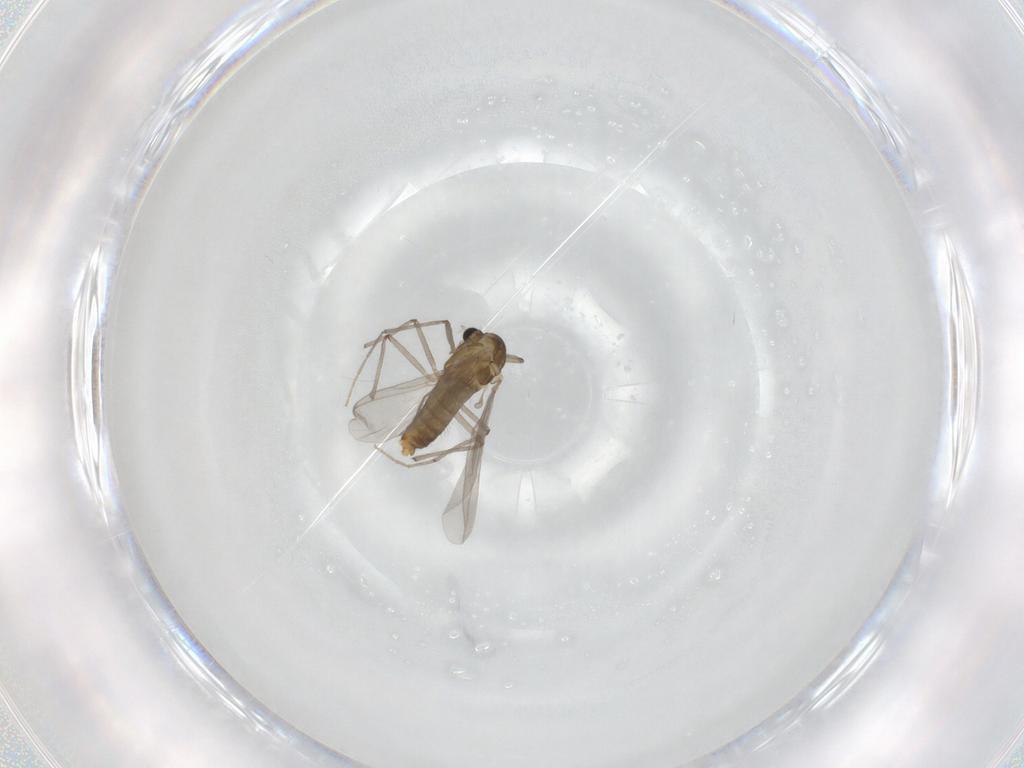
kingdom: Animalia
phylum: Arthropoda
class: Insecta
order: Diptera
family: Chironomidae
